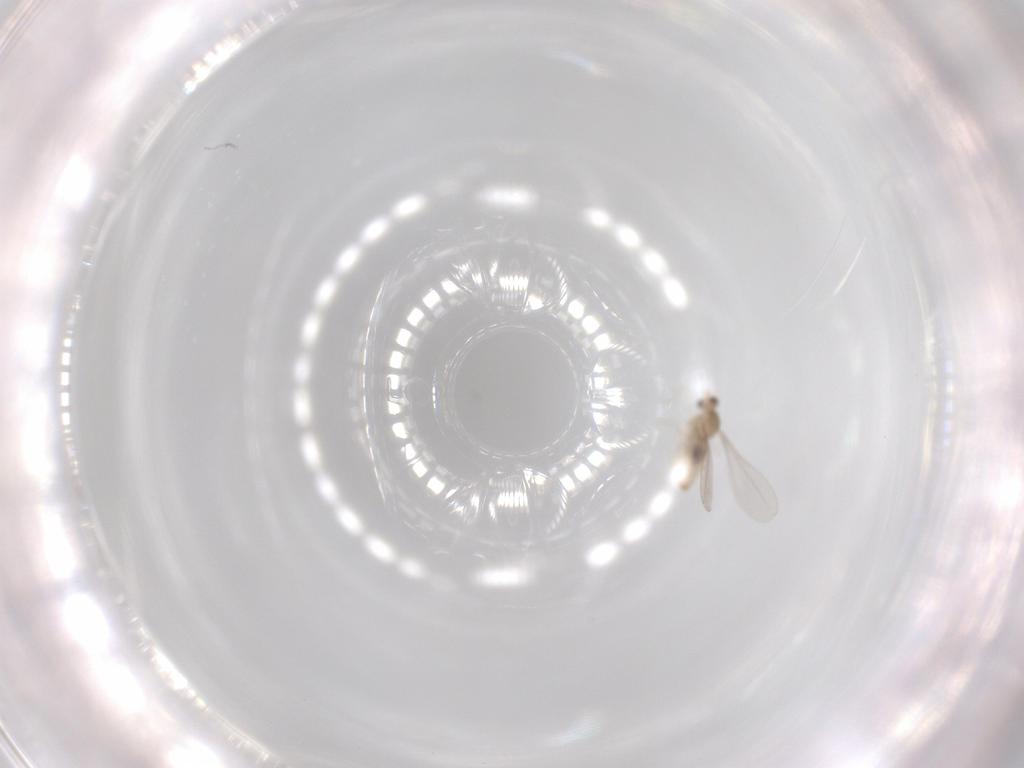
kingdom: Animalia
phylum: Arthropoda
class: Insecta
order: Diptera
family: Cecidomyiidae
